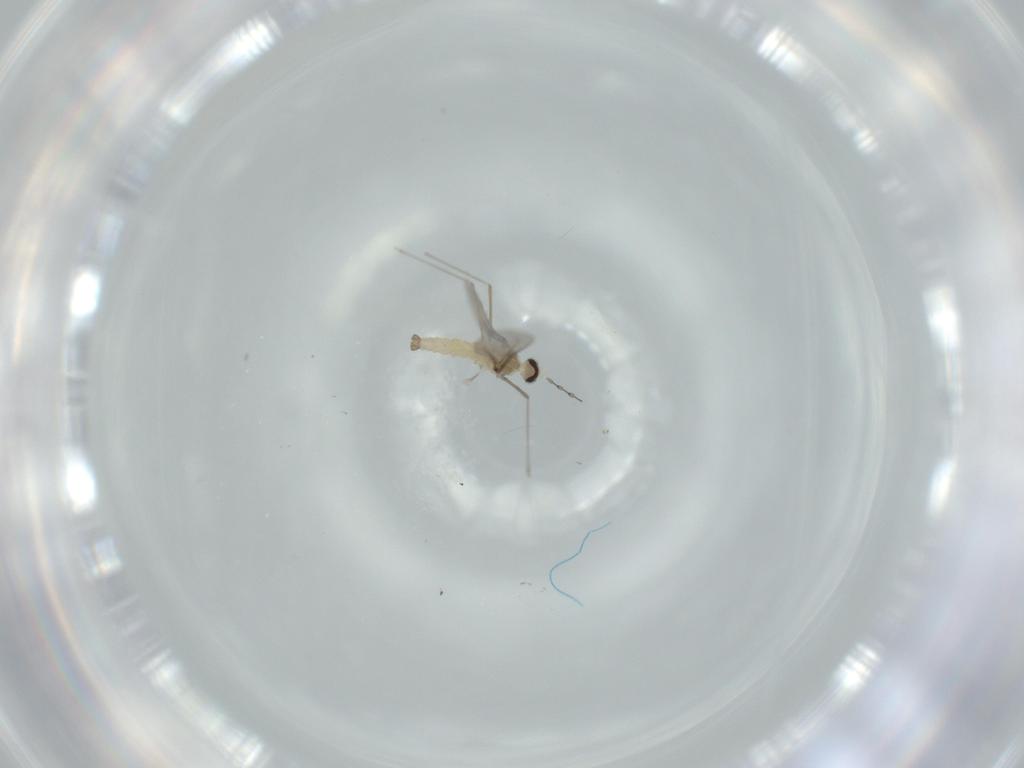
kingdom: Animalia
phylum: Arthropoda
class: Insecta
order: Diptera
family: Cecidomyiidae
